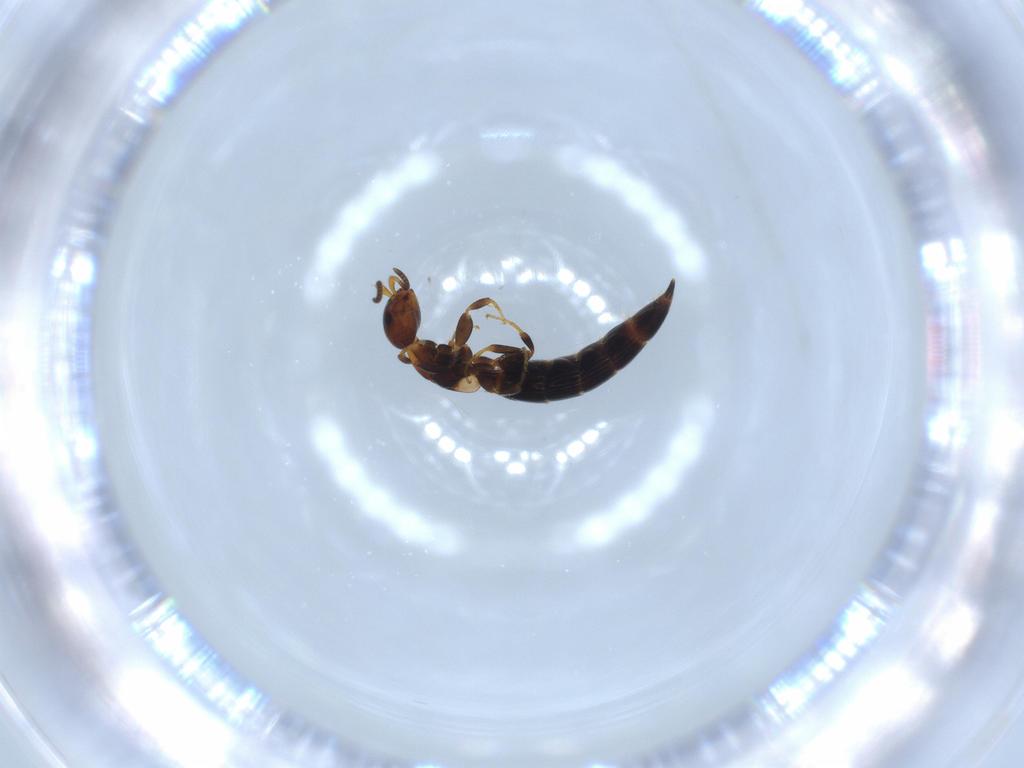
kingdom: Animalia
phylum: Arthropoda
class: Insecta
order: Hymenoptera
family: Bethylidae
